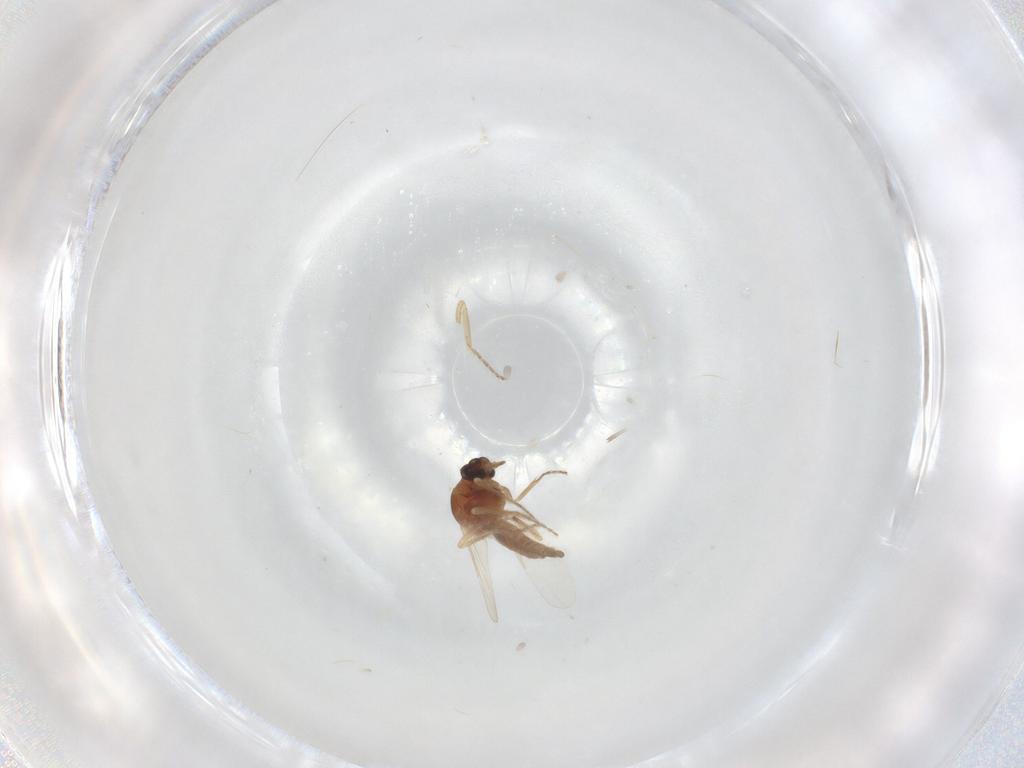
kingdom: Animalia
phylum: Arthropoda
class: Insecta
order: Diptera
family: Ceratopogonidae
